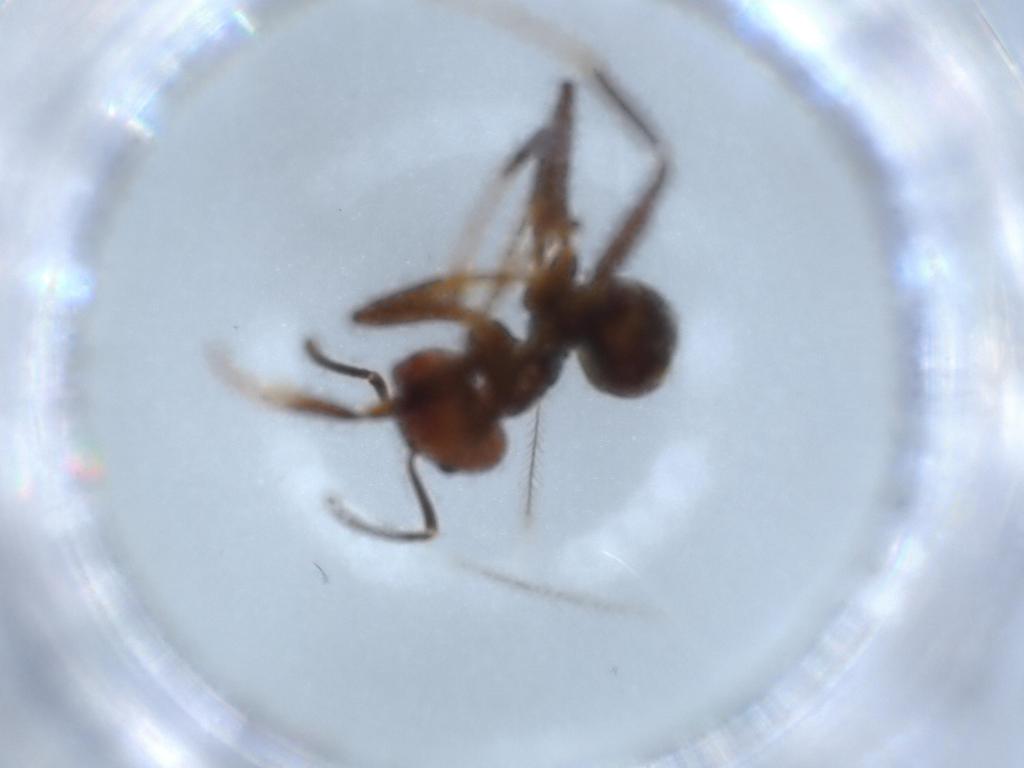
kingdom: Animalia
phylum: Arthropoda
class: Insecta
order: Hymenoptera
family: Formicidae
